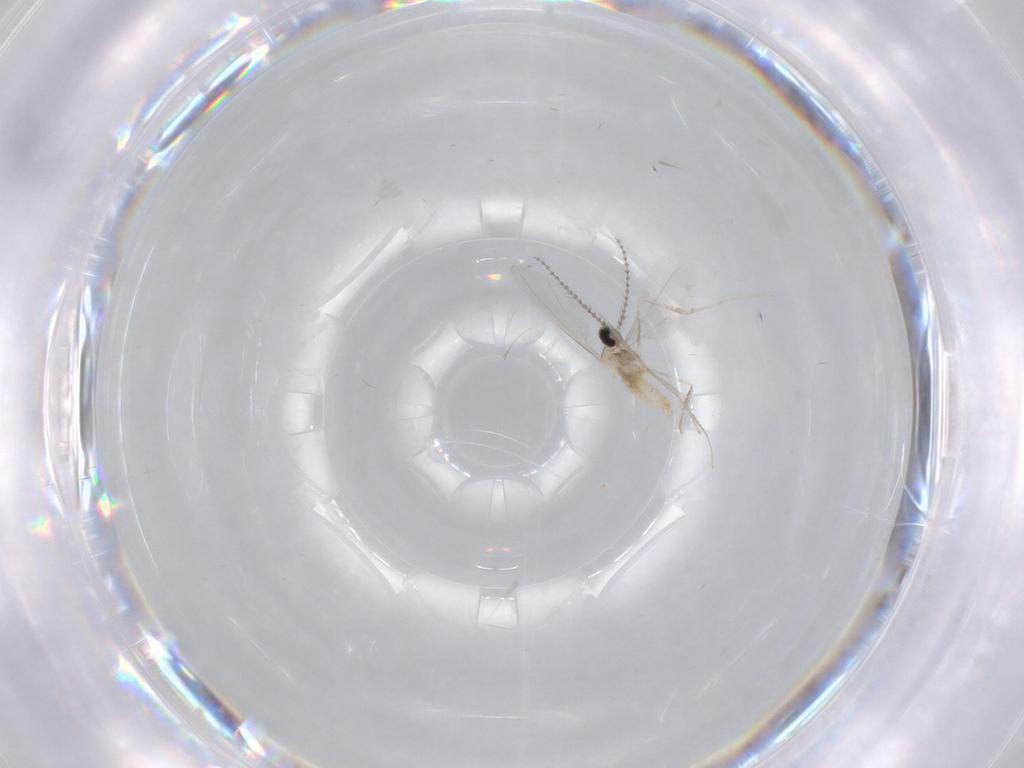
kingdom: Animalia
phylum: Arthropoda
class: Insecta
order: Diptera
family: Cecidomyiidae
